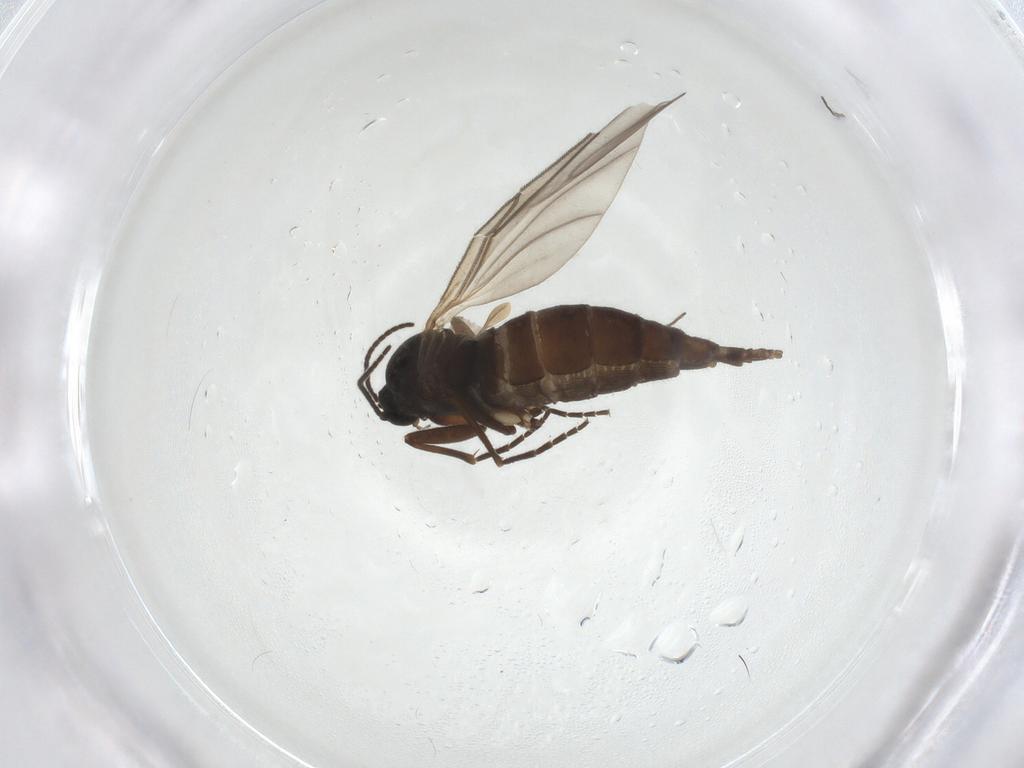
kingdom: Animalia
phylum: Arthropoda
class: Insecta
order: Diptera
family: Sciaridae
